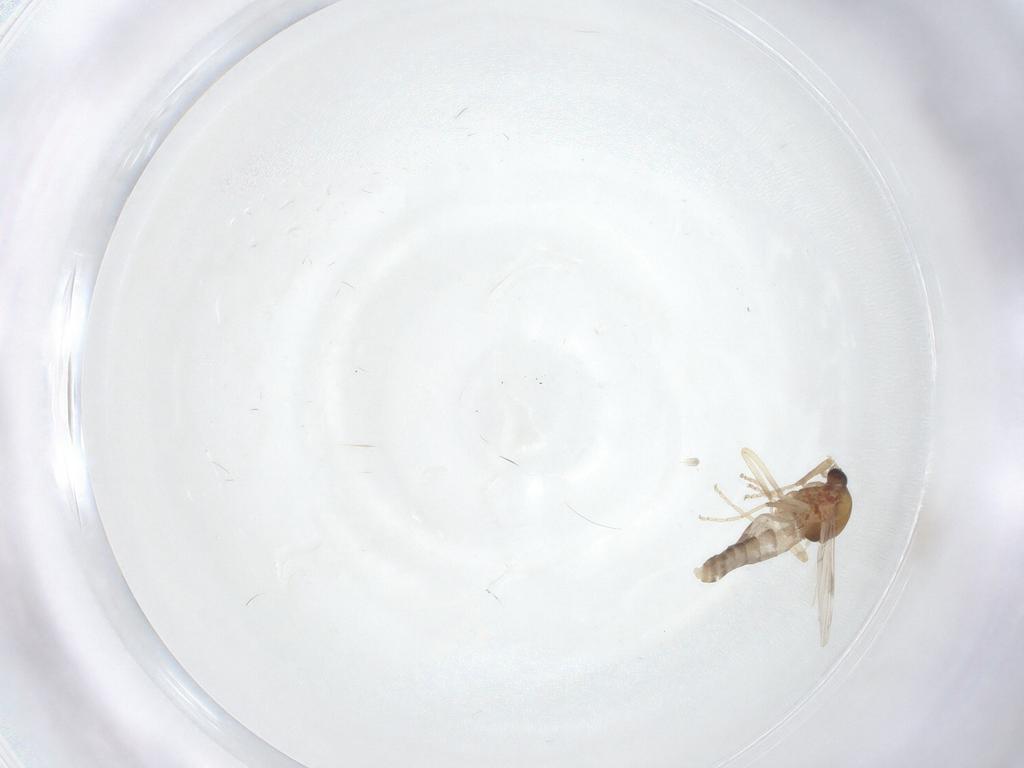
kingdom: Animalia
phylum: Arthropoda
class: Insecta
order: Diptera
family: Ceratopogonidae
